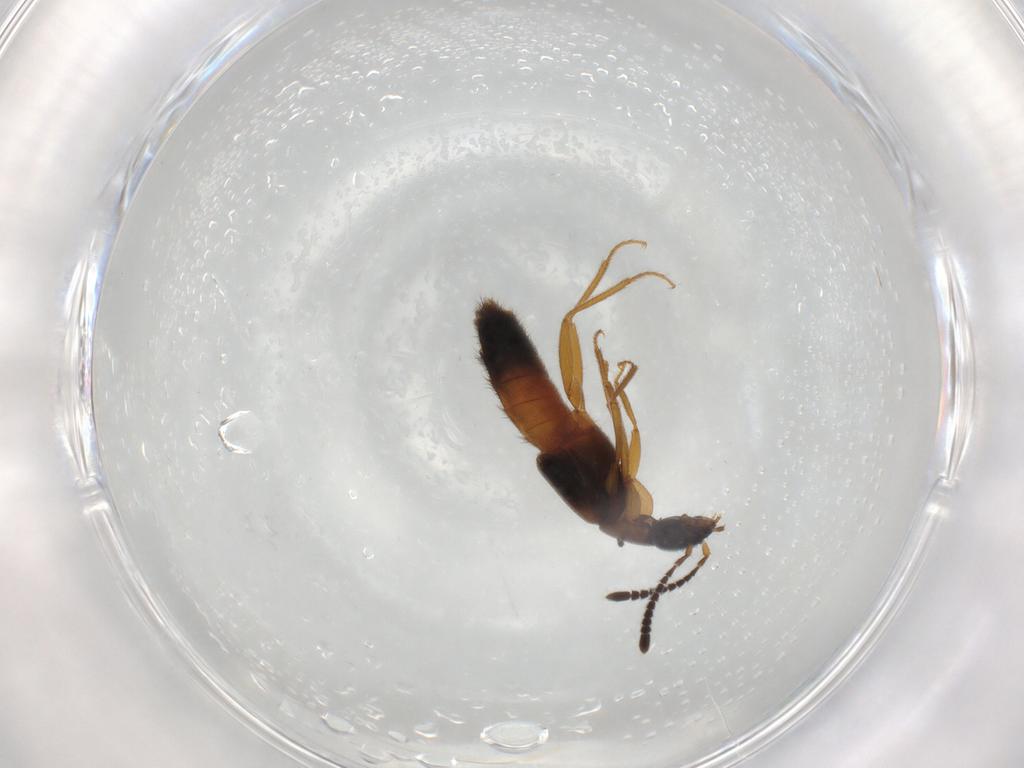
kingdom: Animalia
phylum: Arthropoda
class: Insecta
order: Coleoptera
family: Staphylinidae
